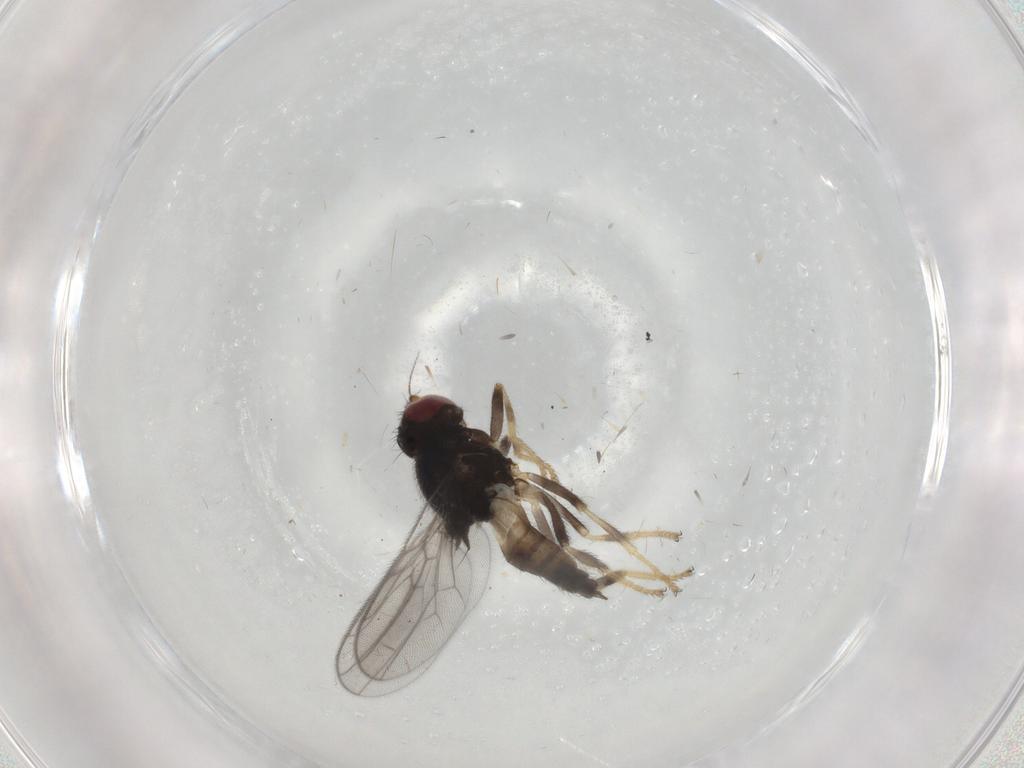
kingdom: Animalia
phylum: Arthropoda
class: Insecta
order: Diptera
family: Chloropidae
